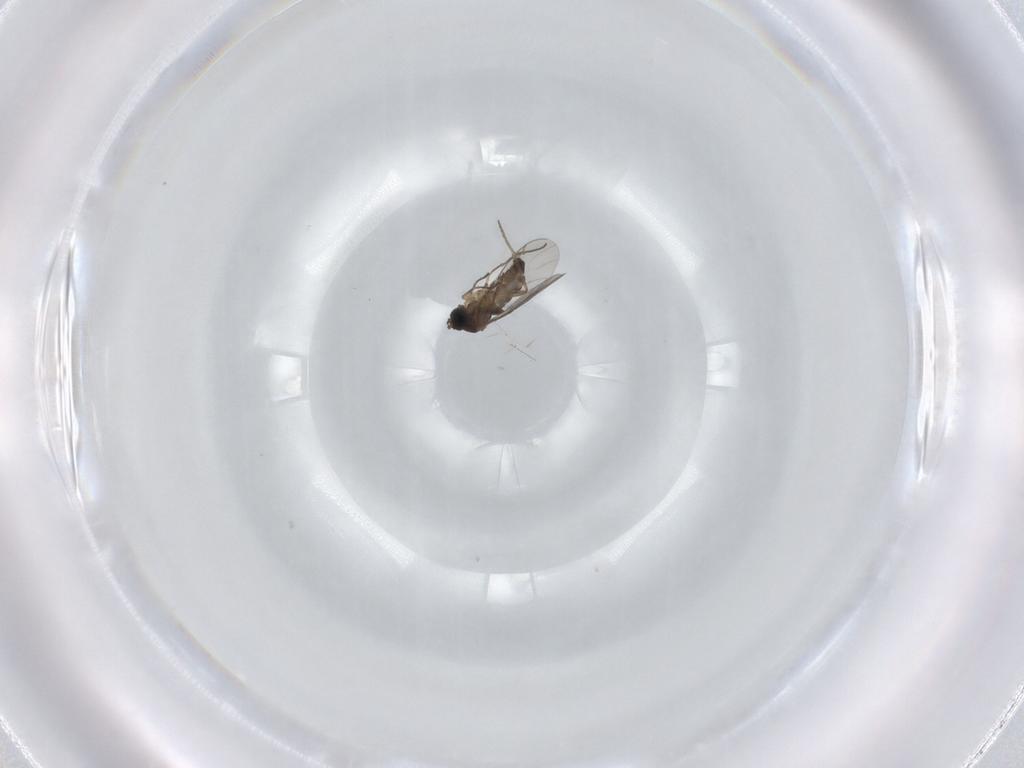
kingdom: Animalia
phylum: Arthropoda
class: Insecta
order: Diptera
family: Sciaridae
